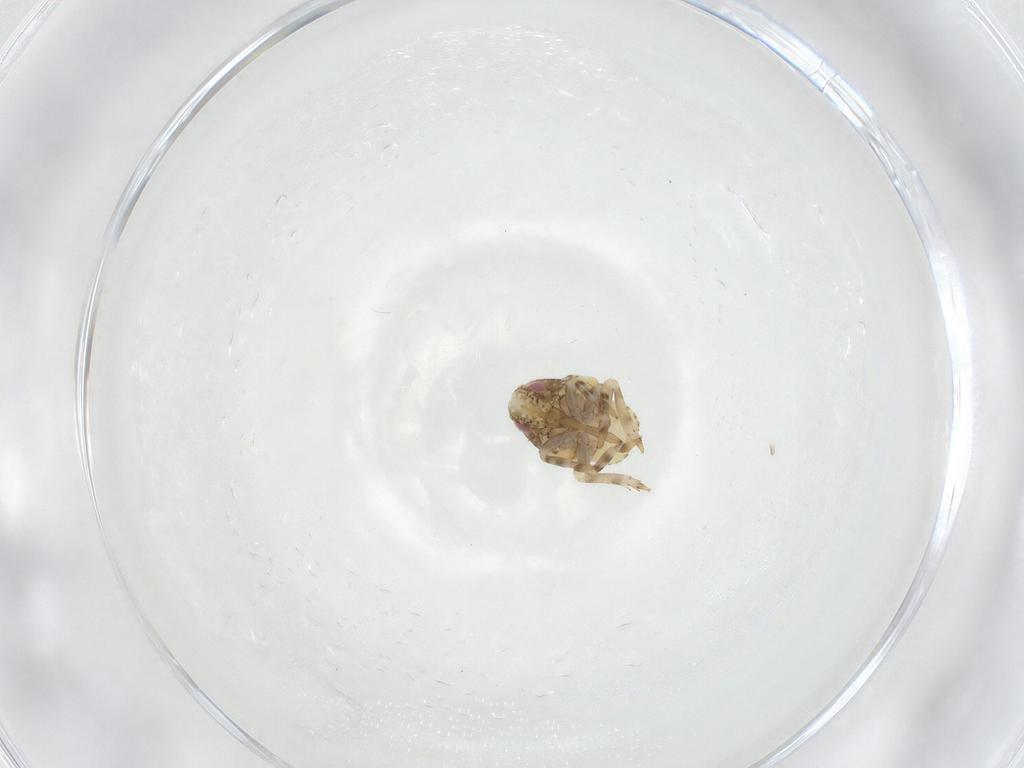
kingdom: Animalia
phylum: Arthropoda
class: Insecta
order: Hemiptera
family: Acanaloniidae
